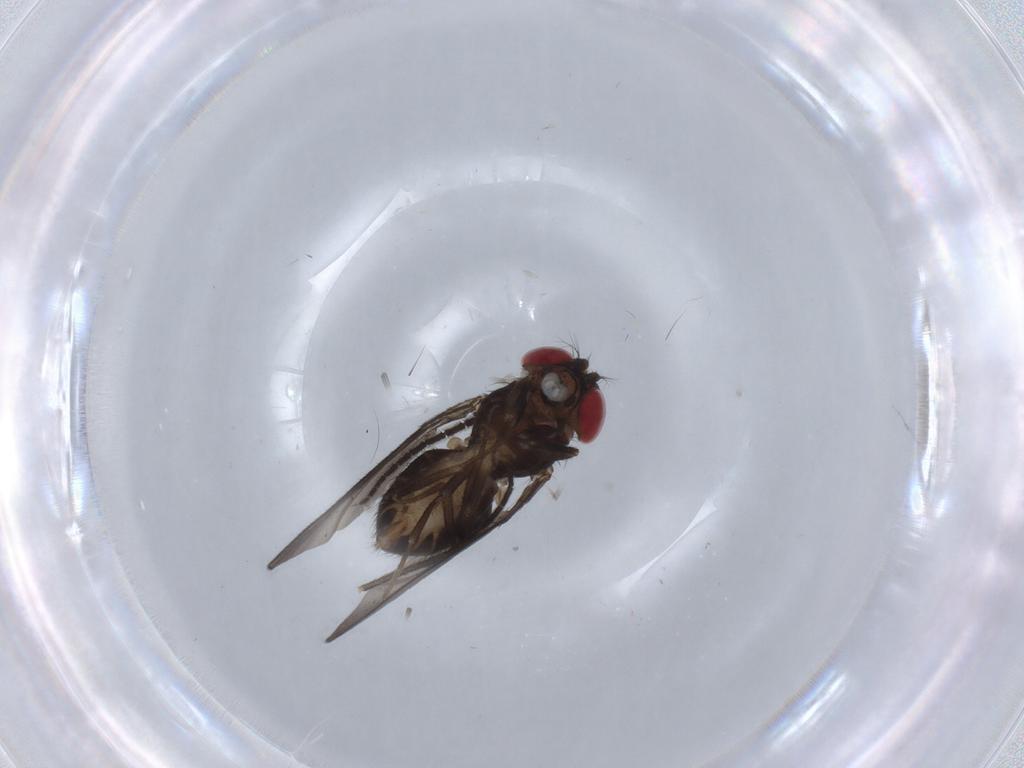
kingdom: Animalia
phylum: Arthropoda
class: Insecta
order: Diptera
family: Drosophilidae
